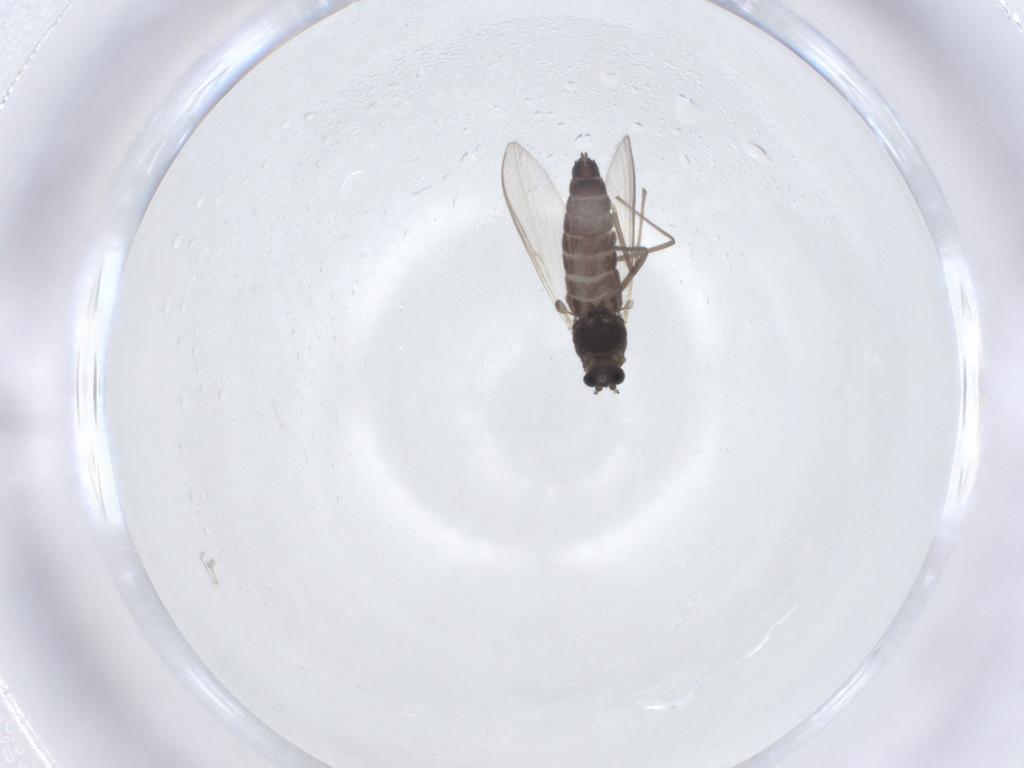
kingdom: Animalia
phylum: Arthropoda
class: Insecta
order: Diptera
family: Chironomidae
